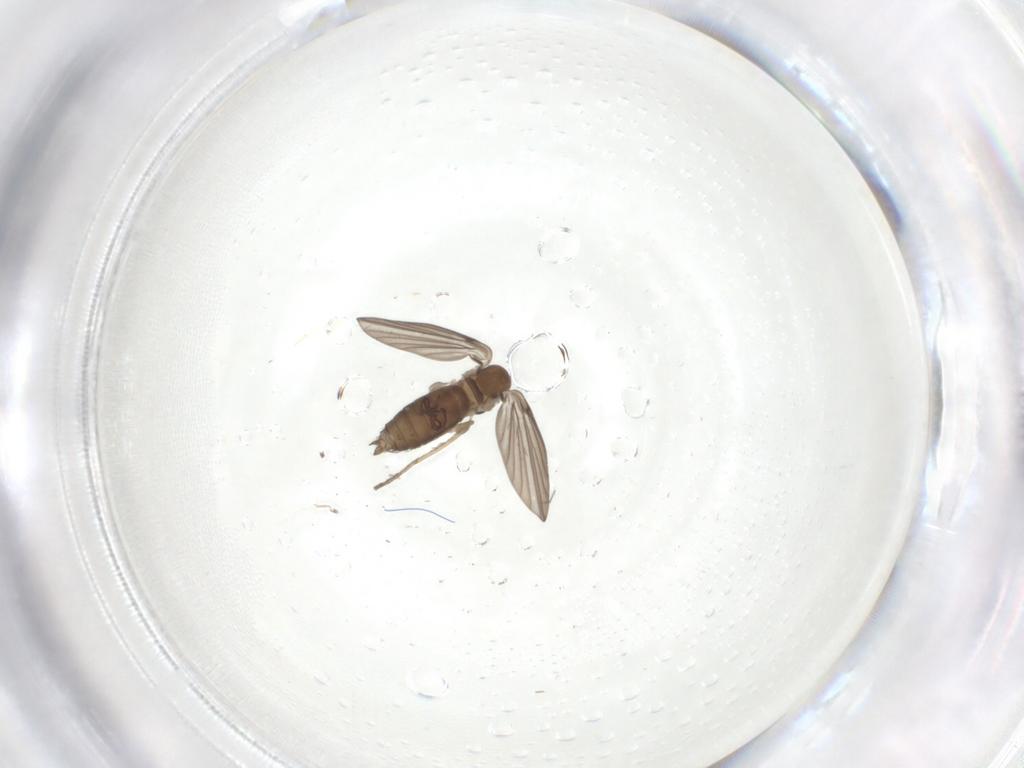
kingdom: Animalia
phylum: Arthropoda
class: Insecta
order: Diptera
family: Psychodidae
